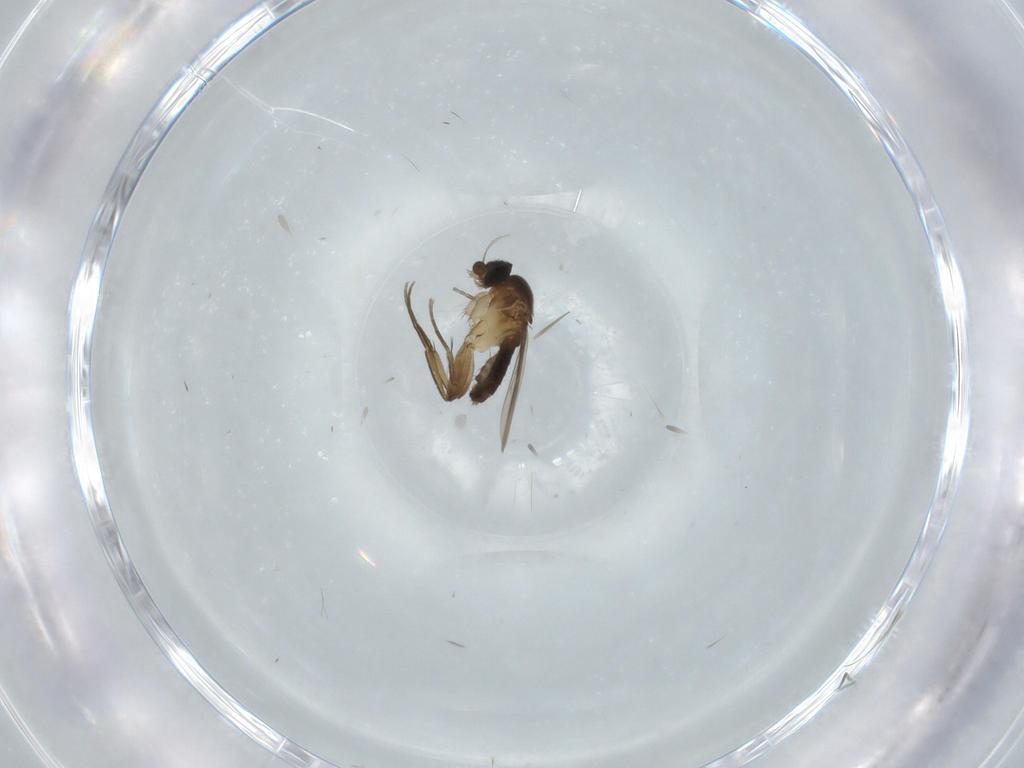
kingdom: Animalia
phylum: Arthropoda
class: Insecta
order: Diptera
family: Phoridae
